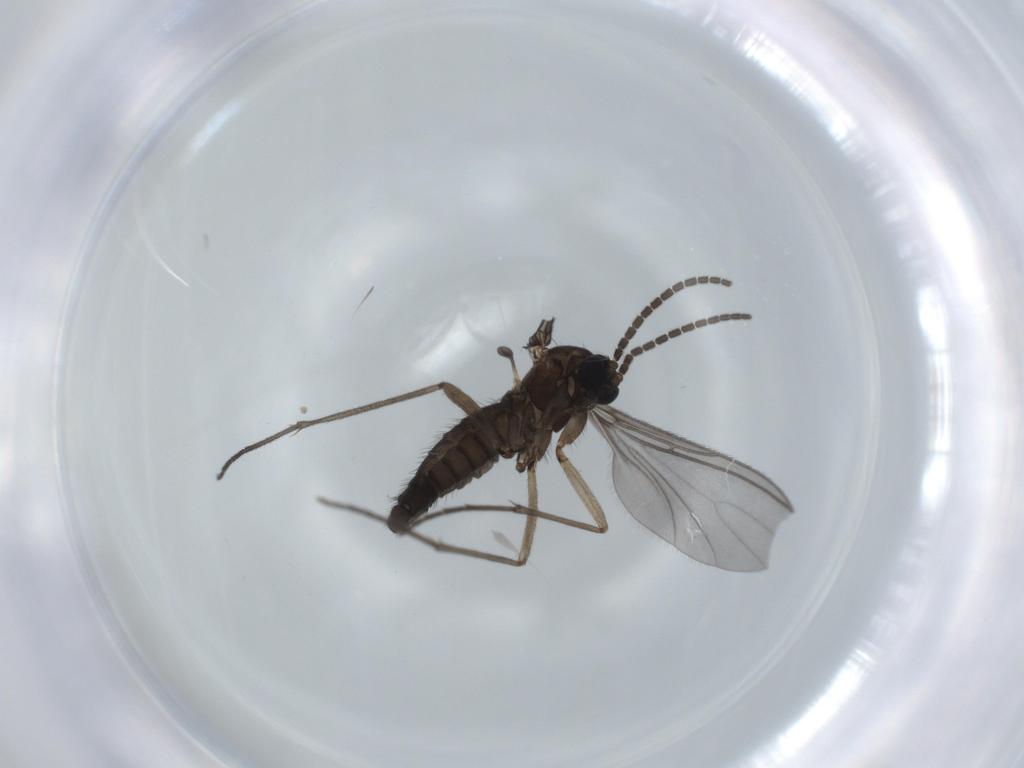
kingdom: Animalia
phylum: Arthropoda
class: Insecta
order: Diptera
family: Sciaridae
